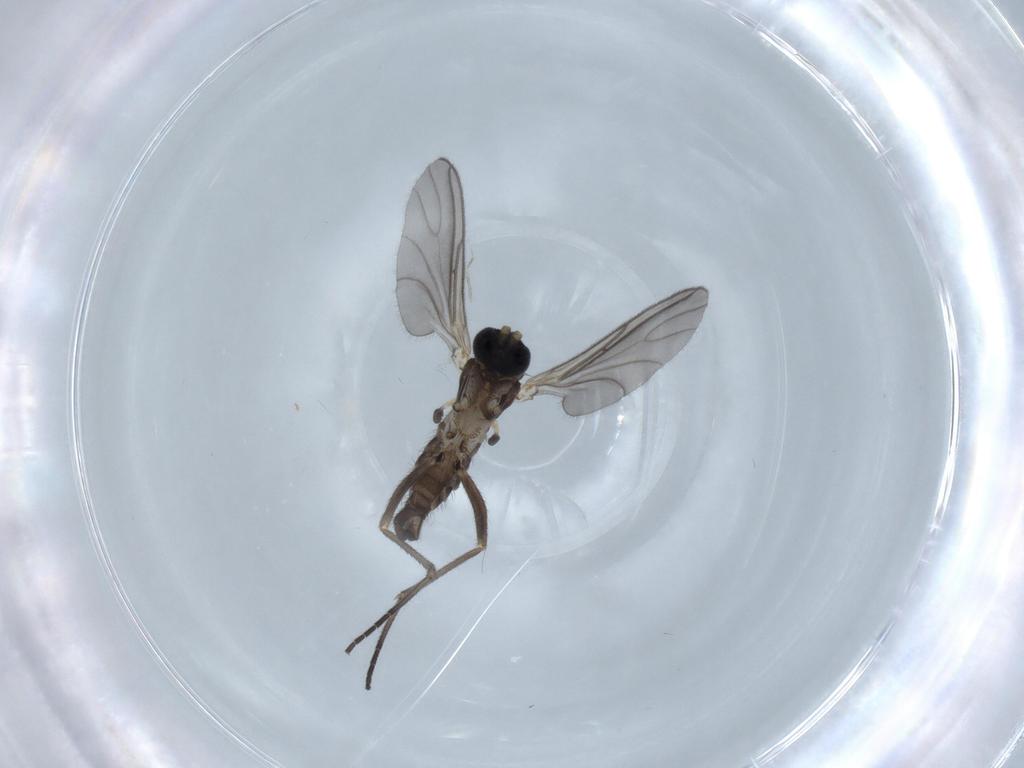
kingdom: Animalia
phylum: Arthropoda
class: Insecta
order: Diptera
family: Sciaridae
